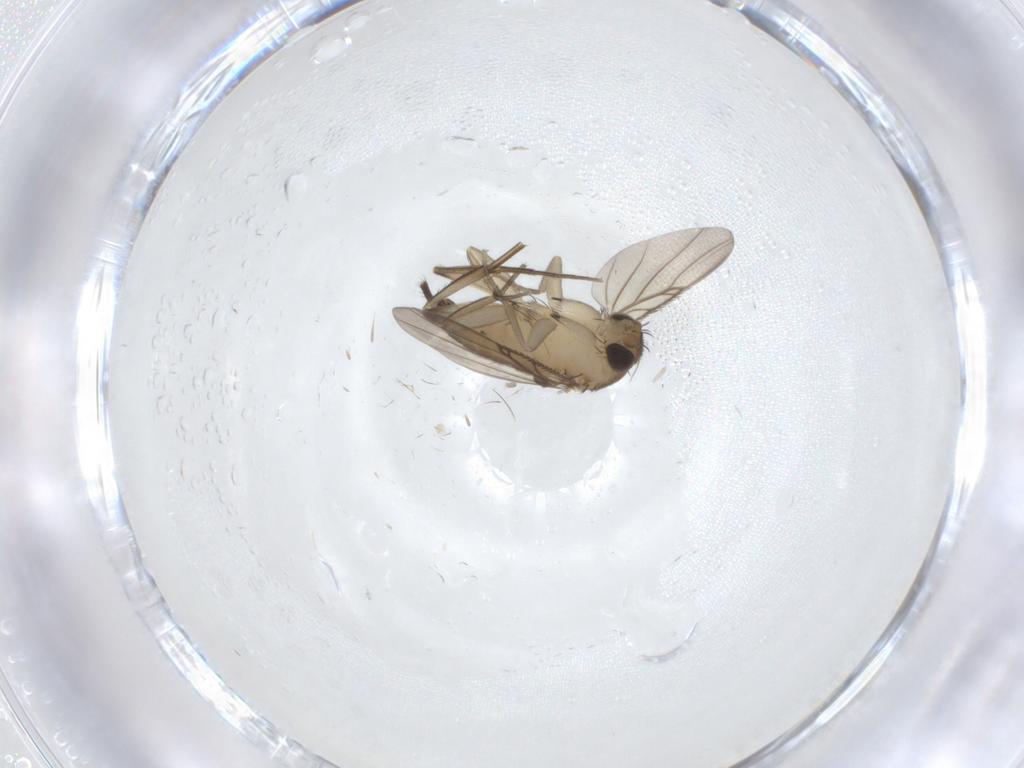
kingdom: Animalia
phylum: Arthropoda
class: Insecta
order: Diptera
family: Phoridae
